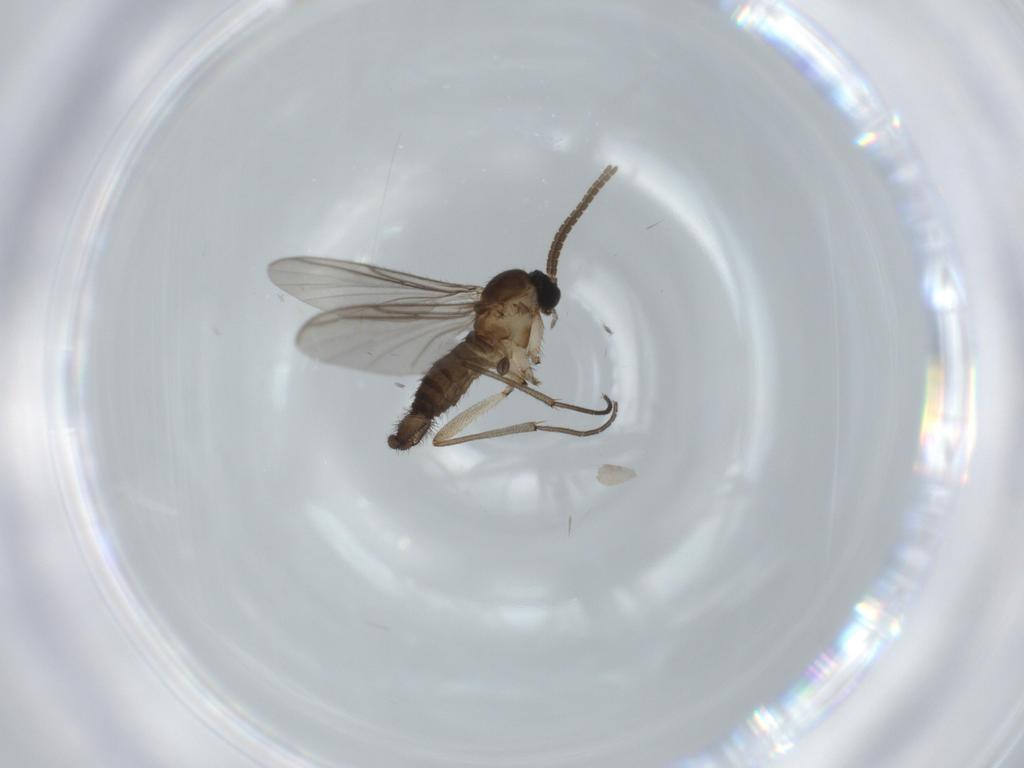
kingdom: Animalia
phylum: Arthropoda
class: Insecta
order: Diptera
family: Sciaridae
